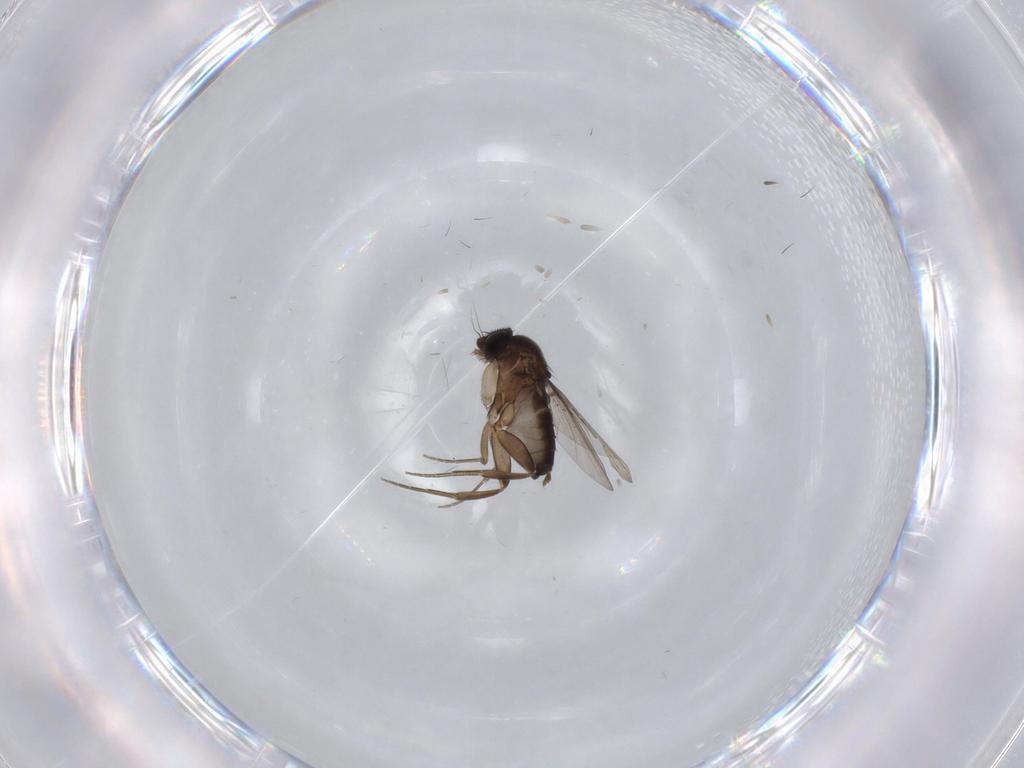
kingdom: Animalia
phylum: Arthropoda
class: Insecta
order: Diptera
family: Phoridae
